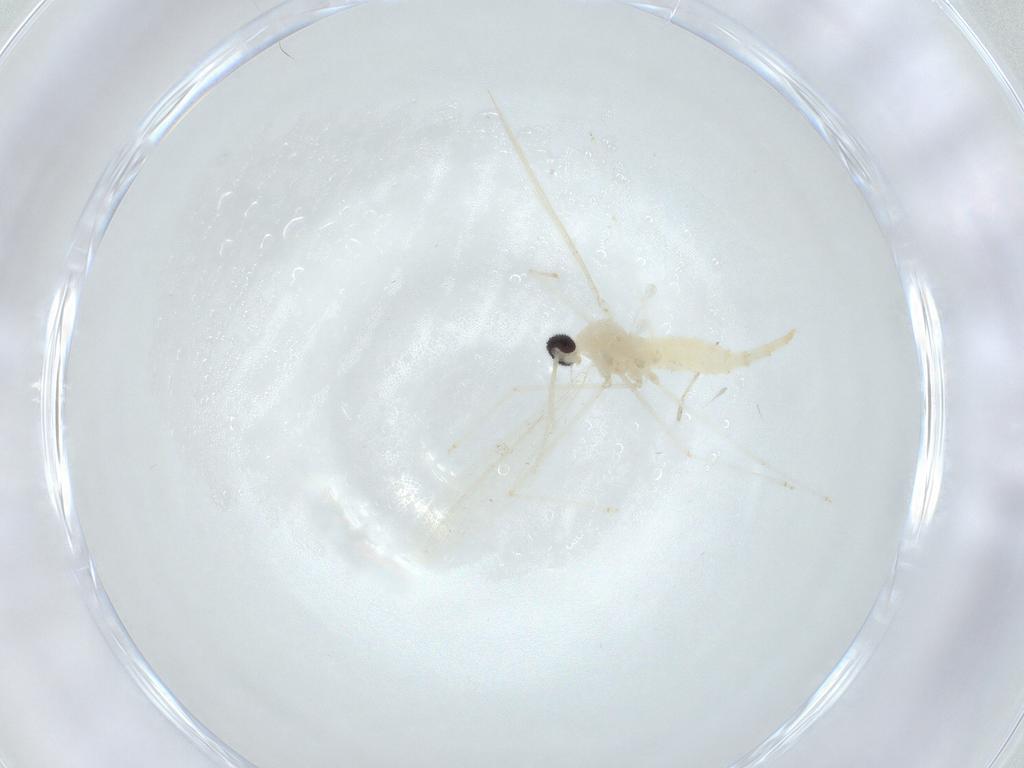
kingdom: Animalia
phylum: Arthropoda
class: Insecta
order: Diptera
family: Cecidomyiidae
